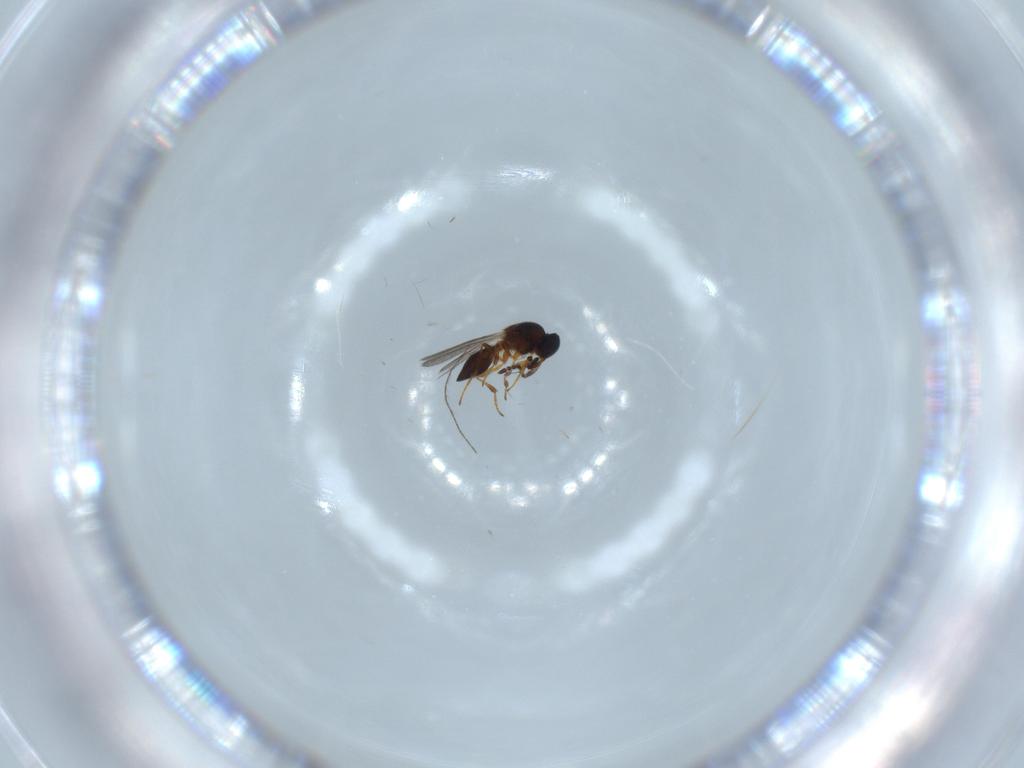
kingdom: Animalia
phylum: Arthropoda
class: Insecta
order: Hymenoptera
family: Platygastridae
